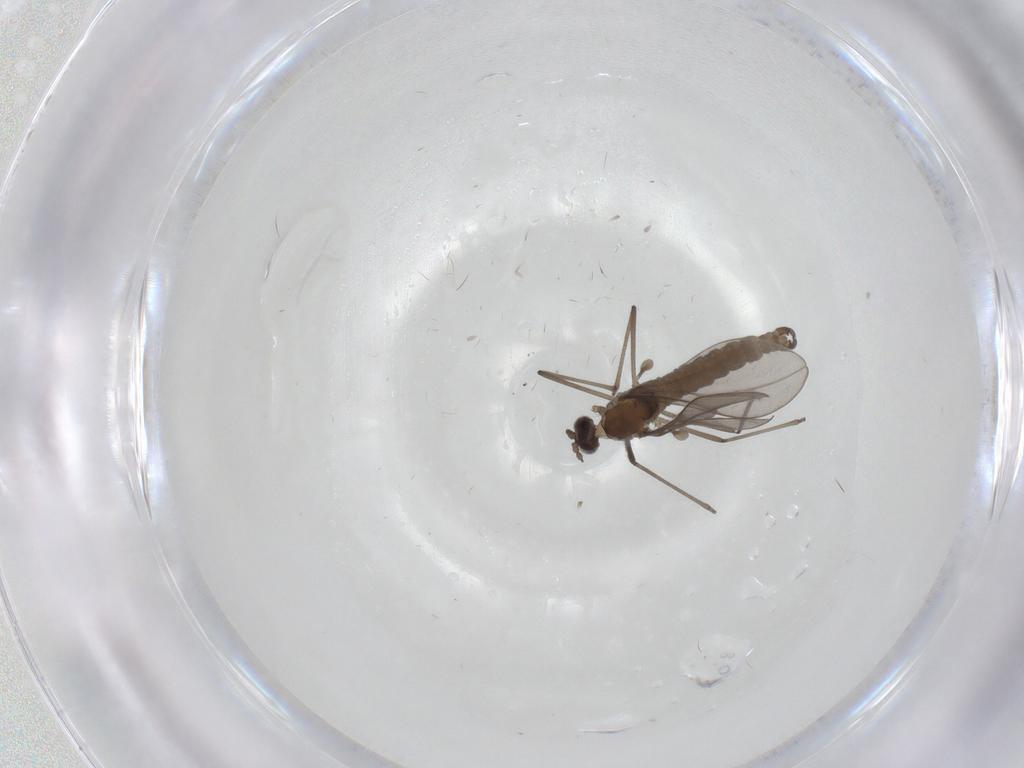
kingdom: Animalia
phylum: Arthropoda
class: Insecta
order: Diptera
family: Cecidomyiidae
